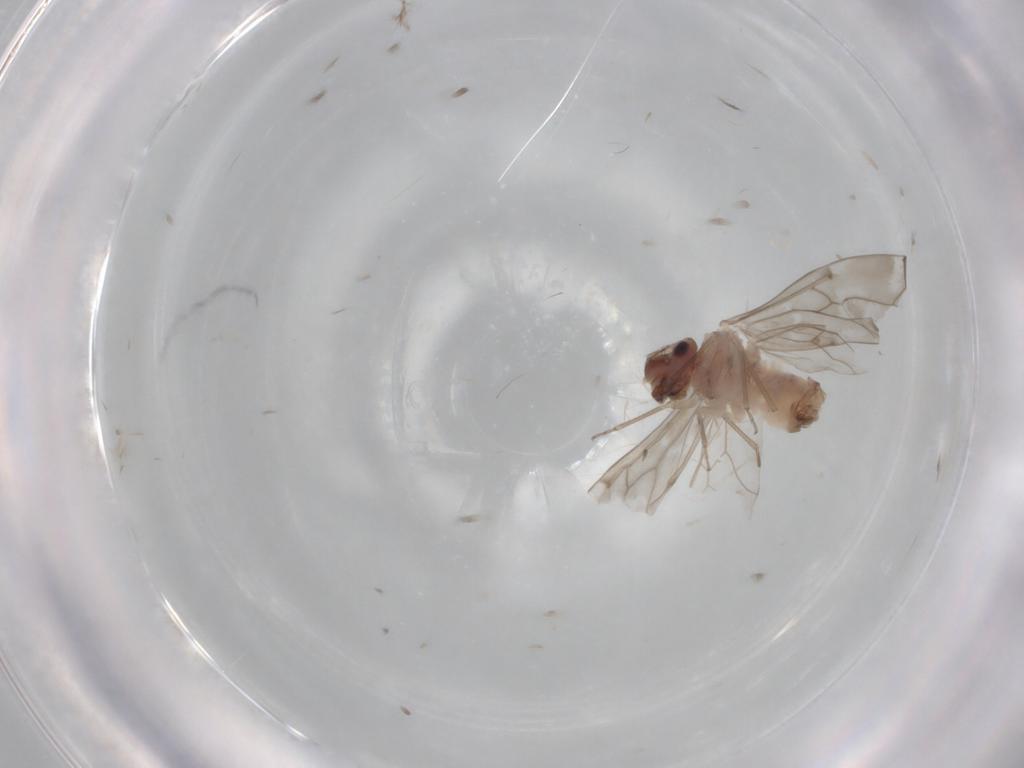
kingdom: Animalia
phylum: Arthropoda
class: Insecta
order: Psocodea
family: Peripsocidae
